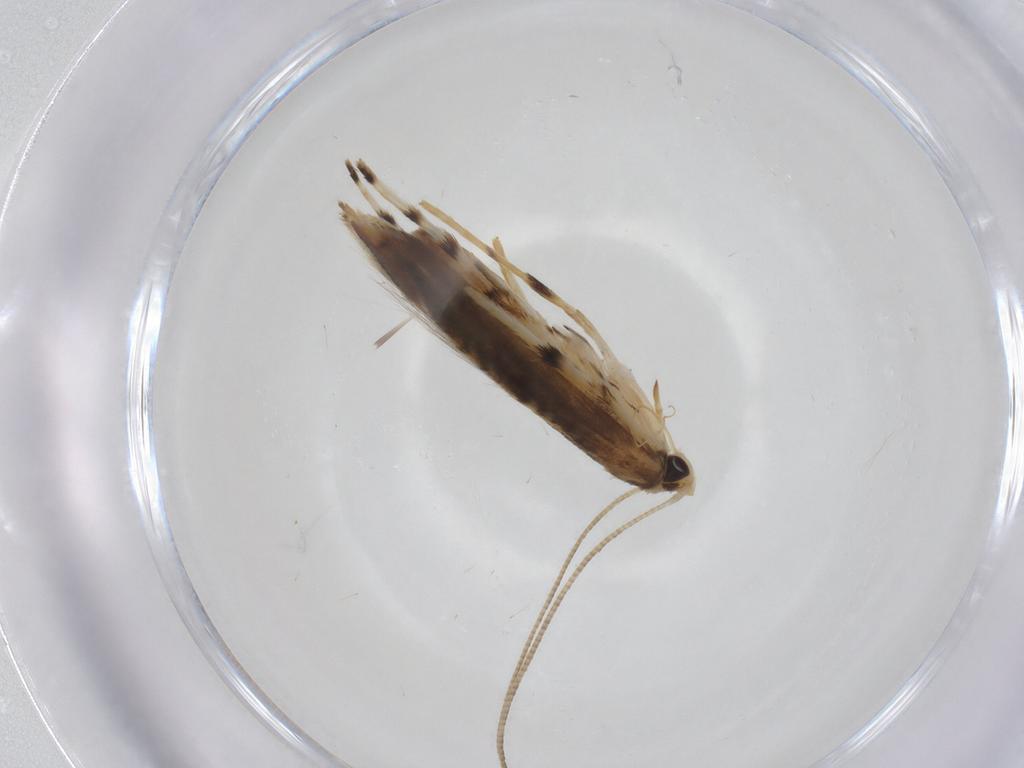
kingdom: Animalia
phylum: Arthropoda
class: Insecta
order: Lepidoptera
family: Gracillariidae
